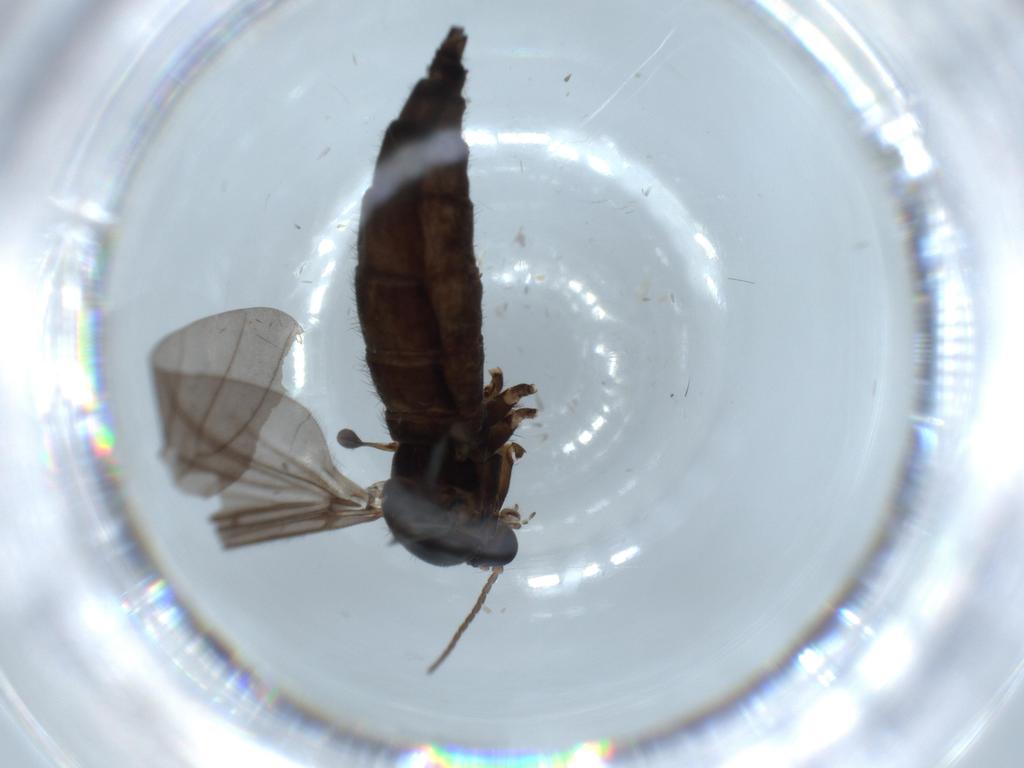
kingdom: Animalia
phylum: Arthropoda
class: Insecta
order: Diptera
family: Sciaridae
